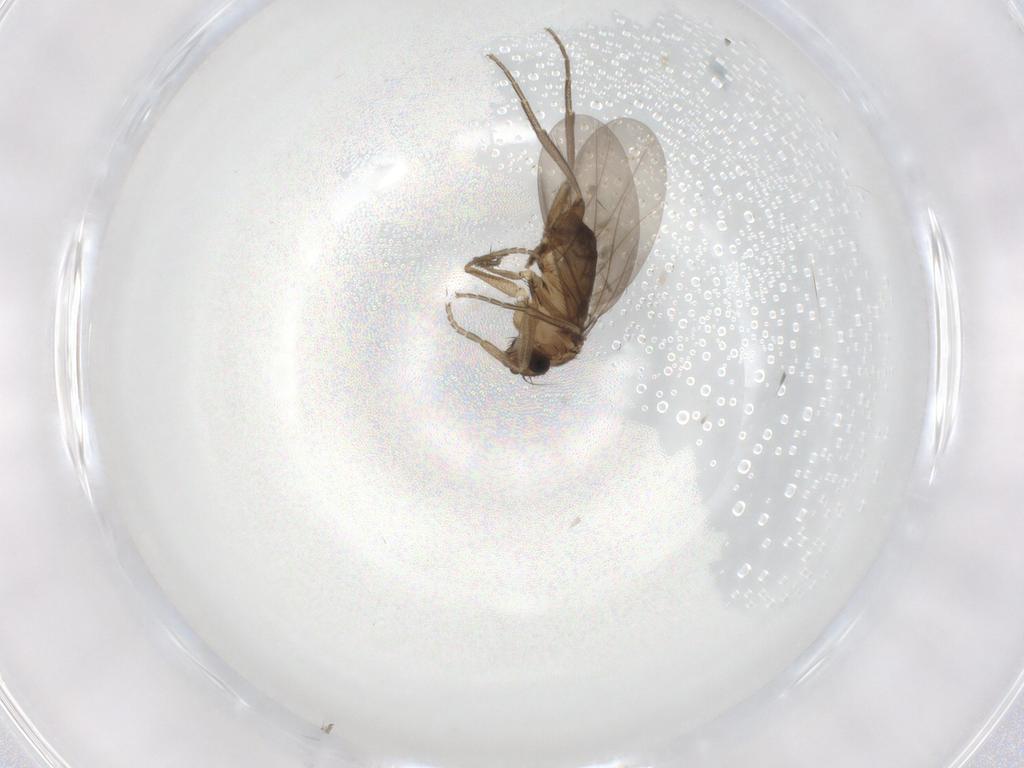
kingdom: Animalia
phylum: Arthropoda
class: Insecta
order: Diptera
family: Phoridae
